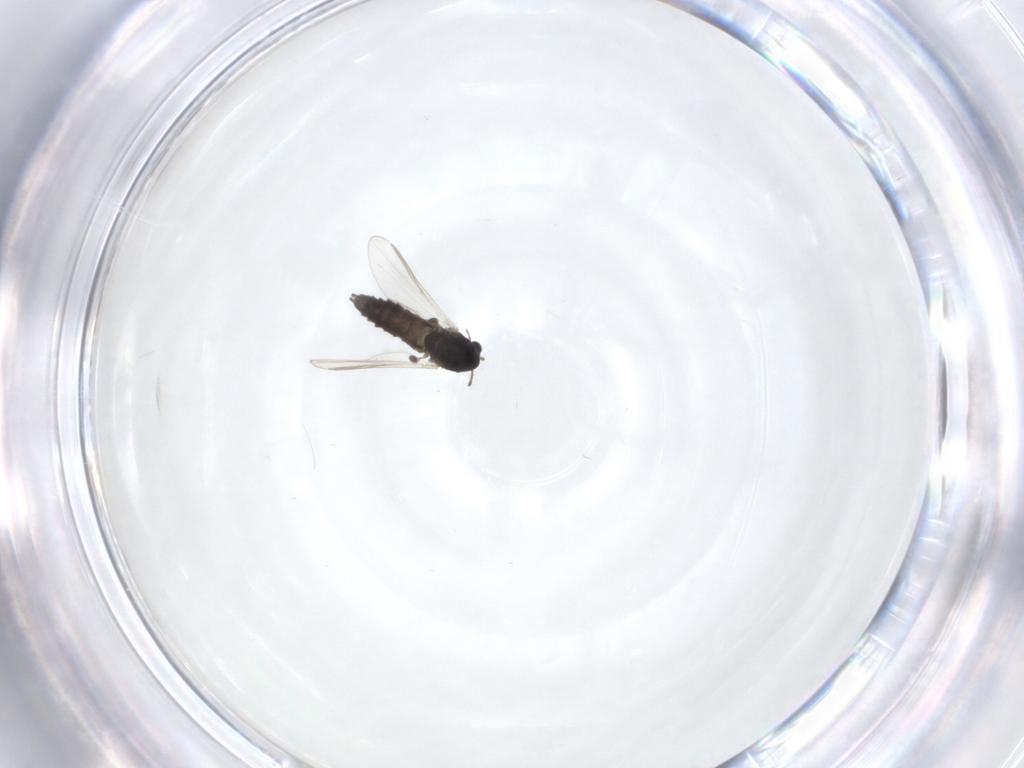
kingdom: Animalia
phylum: Arthropoda
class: Insecta
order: Diptera
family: Chironomidae
